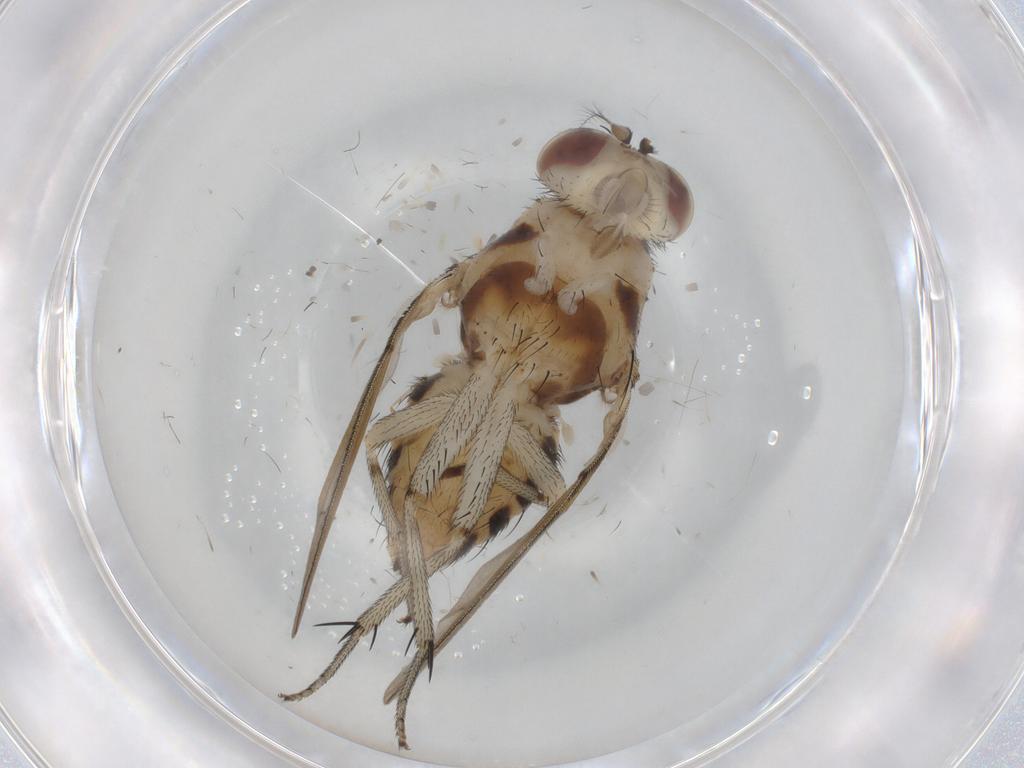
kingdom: Animalia
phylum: Arthropoda
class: Insecta
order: Diptera
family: Lauxaniidae
